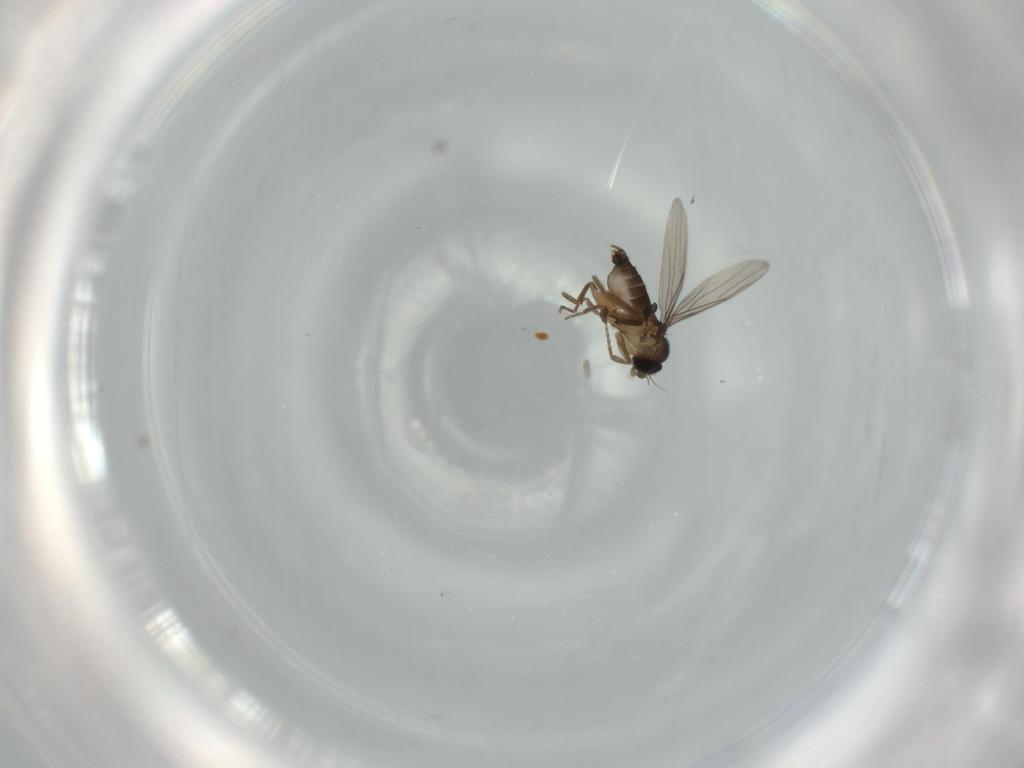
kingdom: Animalia
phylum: Arthropoda
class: Insecta
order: Diptera
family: Phoridae
